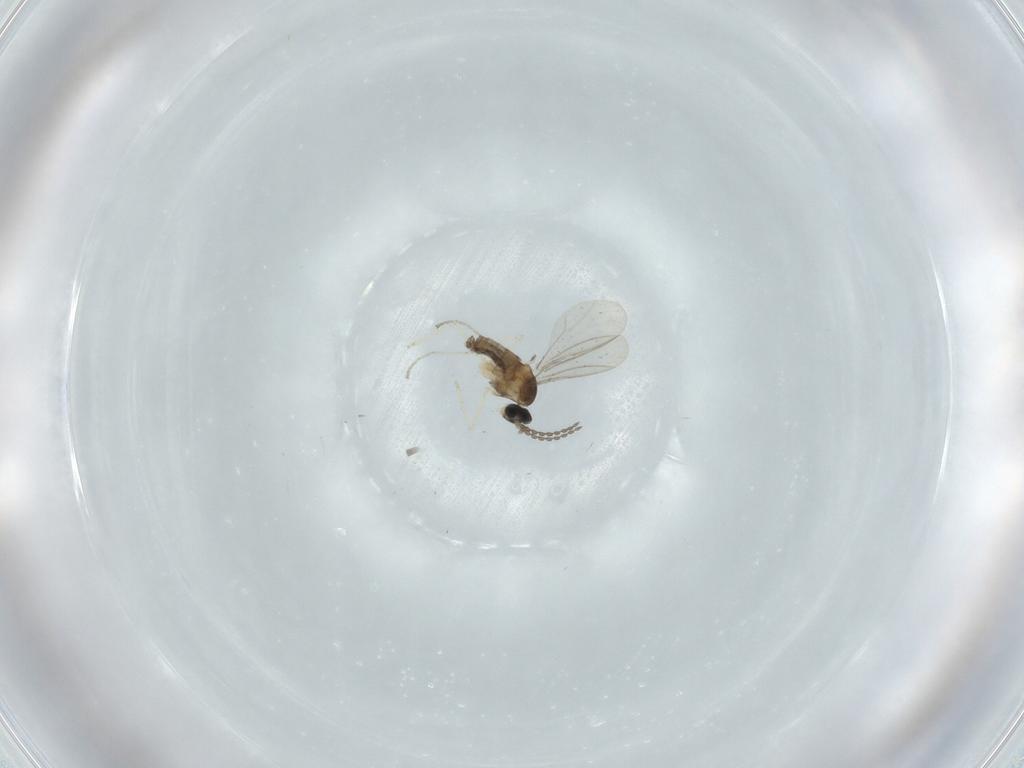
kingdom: Animalia
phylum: Arthropoda
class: Insecta
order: Diptera
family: Cecidomyiidae
